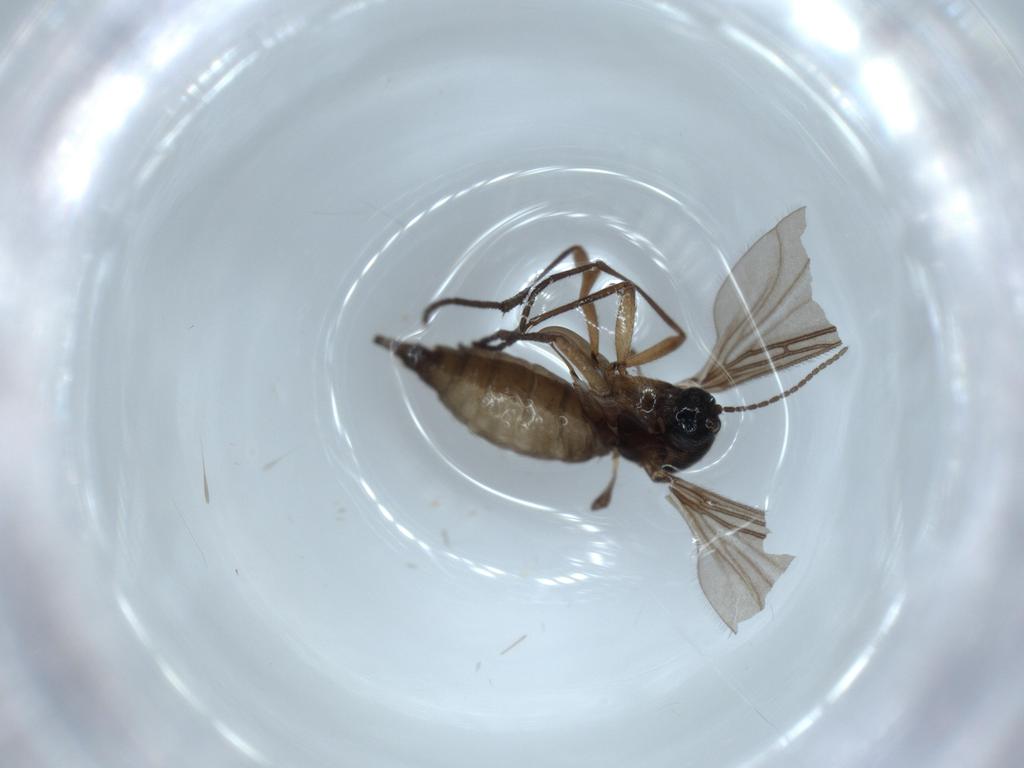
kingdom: Animalia
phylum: Arthropoda
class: Insecta
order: Diptera
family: Sciaridae
